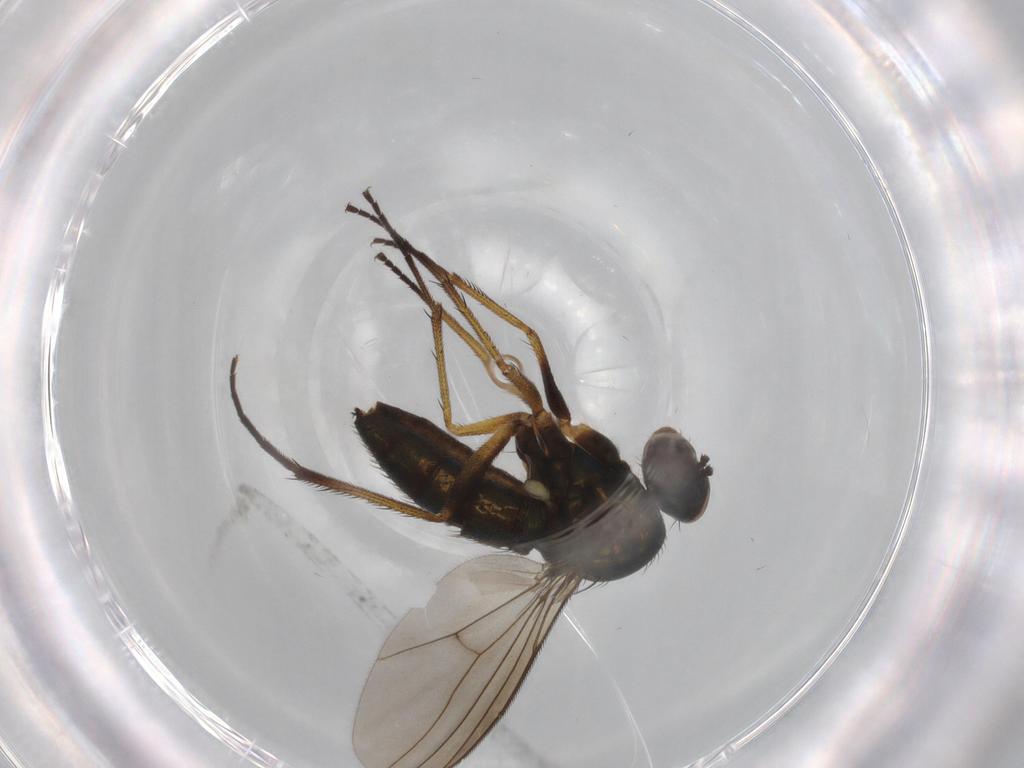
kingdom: Animalia
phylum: Arthropoda
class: Insecta
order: Diptera
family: Dolichopodidae
